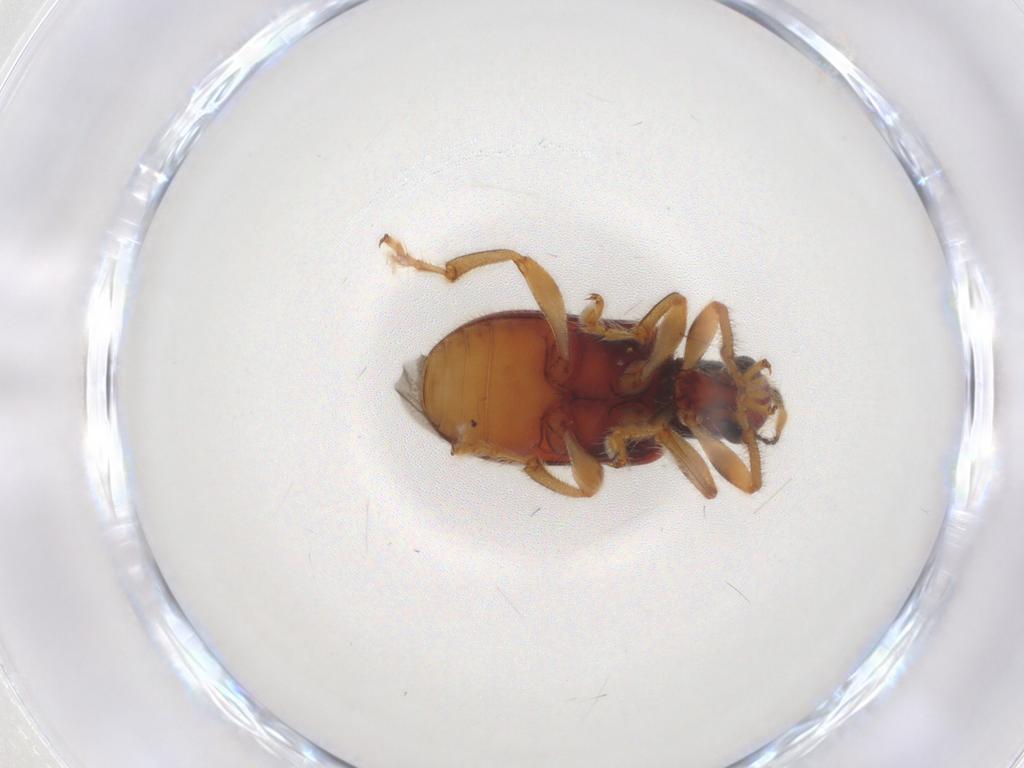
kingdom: Animalia
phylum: Arthropoda
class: Insecta
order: Coleoptera
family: Attelabidae
